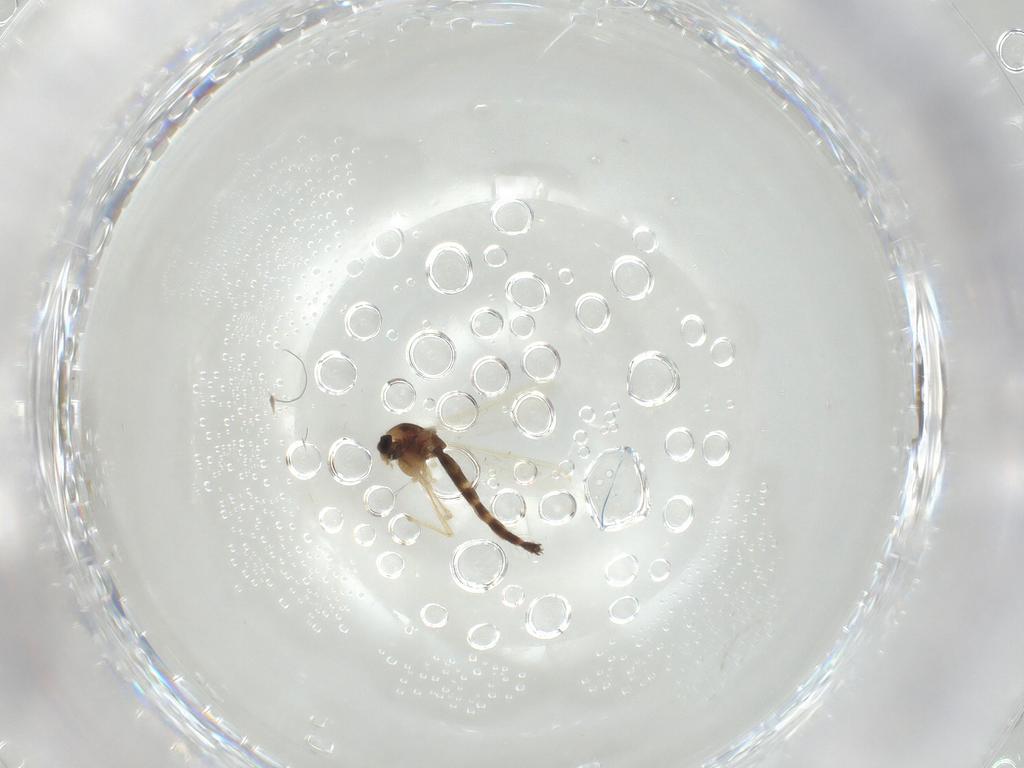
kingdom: Animalia
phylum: Arthropoda
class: Insecta
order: Diptera
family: Chironomidae
